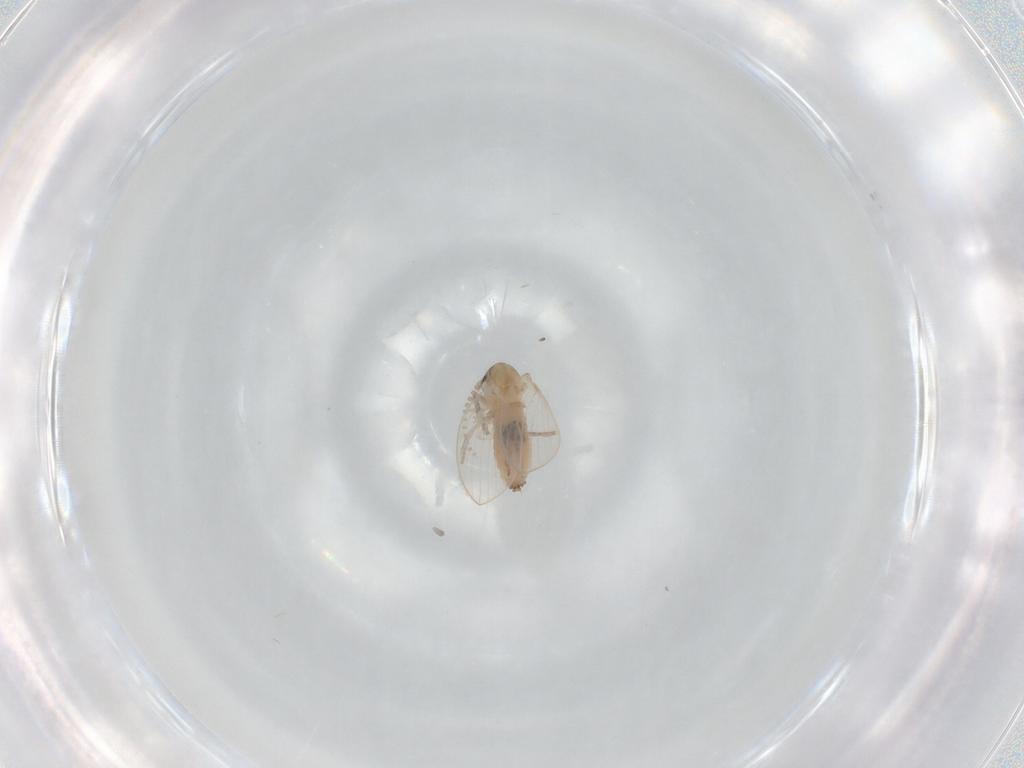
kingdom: Animalia
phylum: Arthropoda
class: Insecta
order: Diptera
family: Psychodidae
